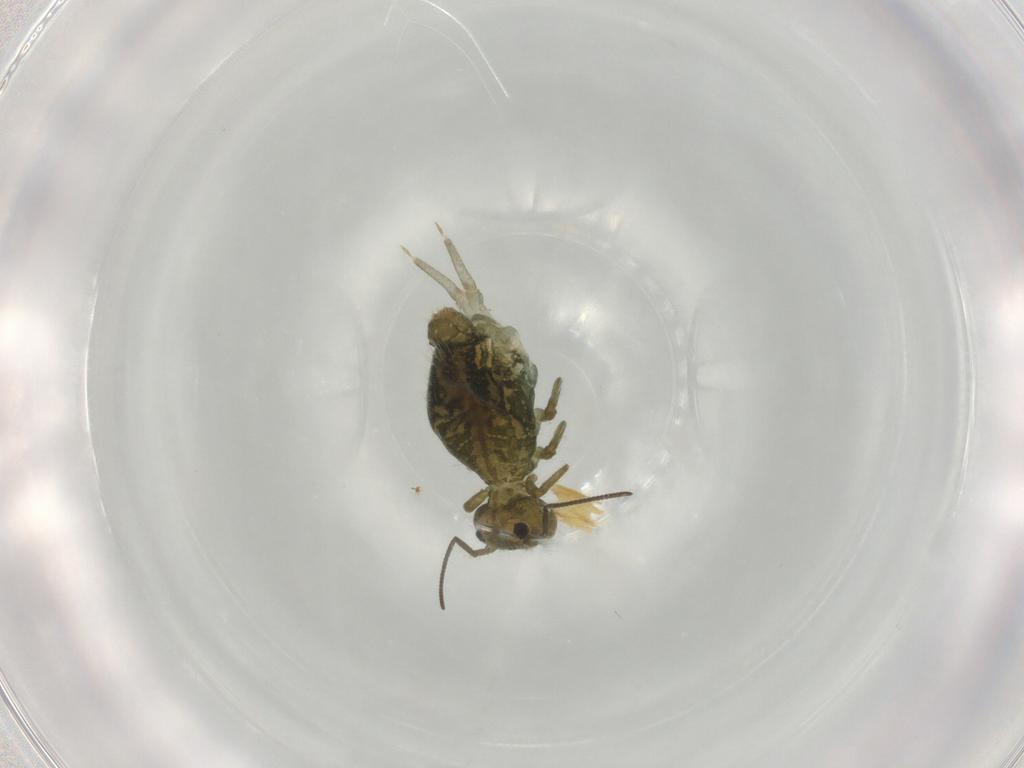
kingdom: Animalia
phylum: Arthropoda
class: Collembola
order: Symphypleona
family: Sminthuridae
